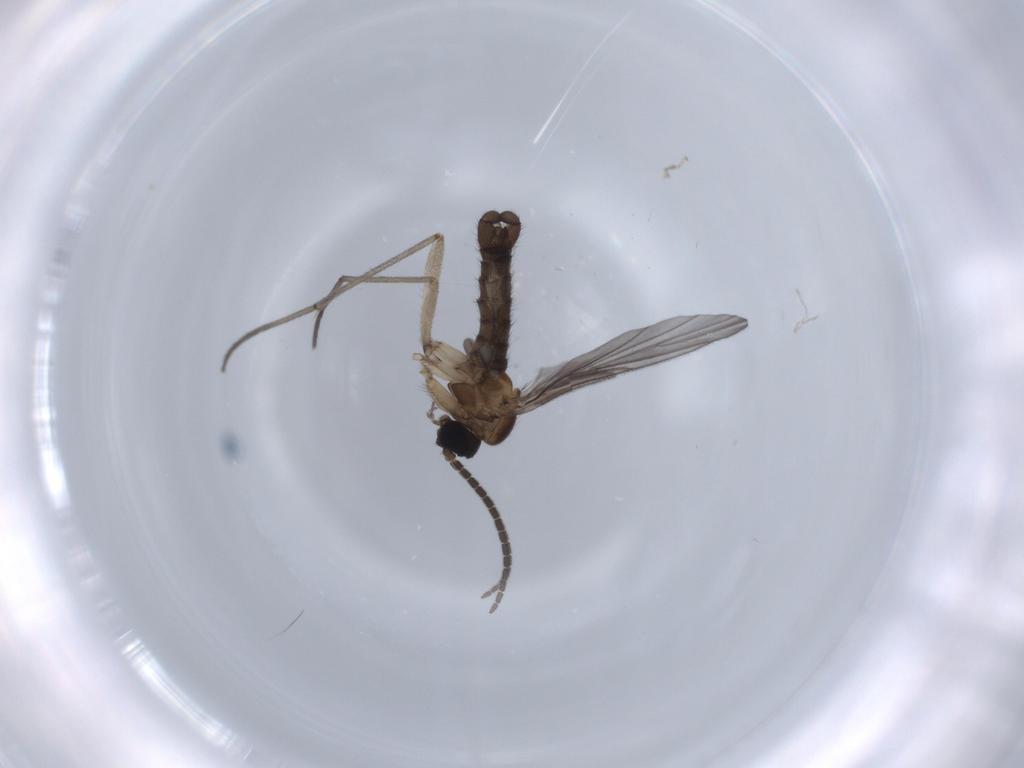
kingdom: Animalia
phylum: Arthropoda
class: Insecta
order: Diptera
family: Sciaridae
